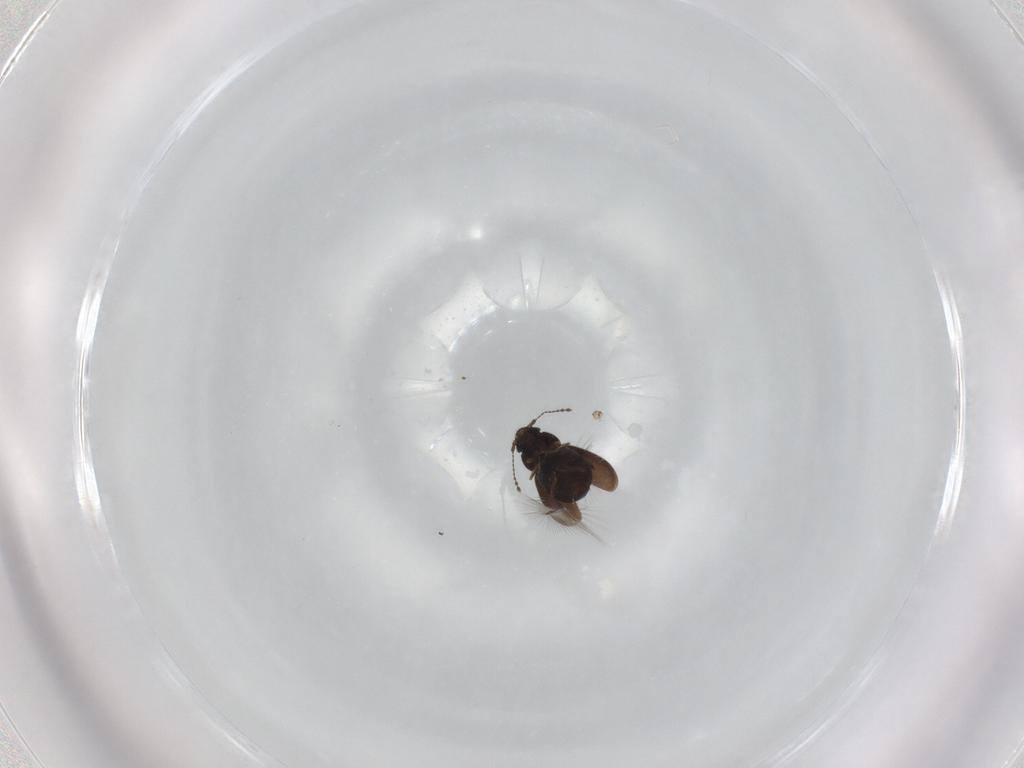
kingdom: Animalia
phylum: Arthropoda
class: Insecta
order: Coleoptera
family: Ptiliidae
